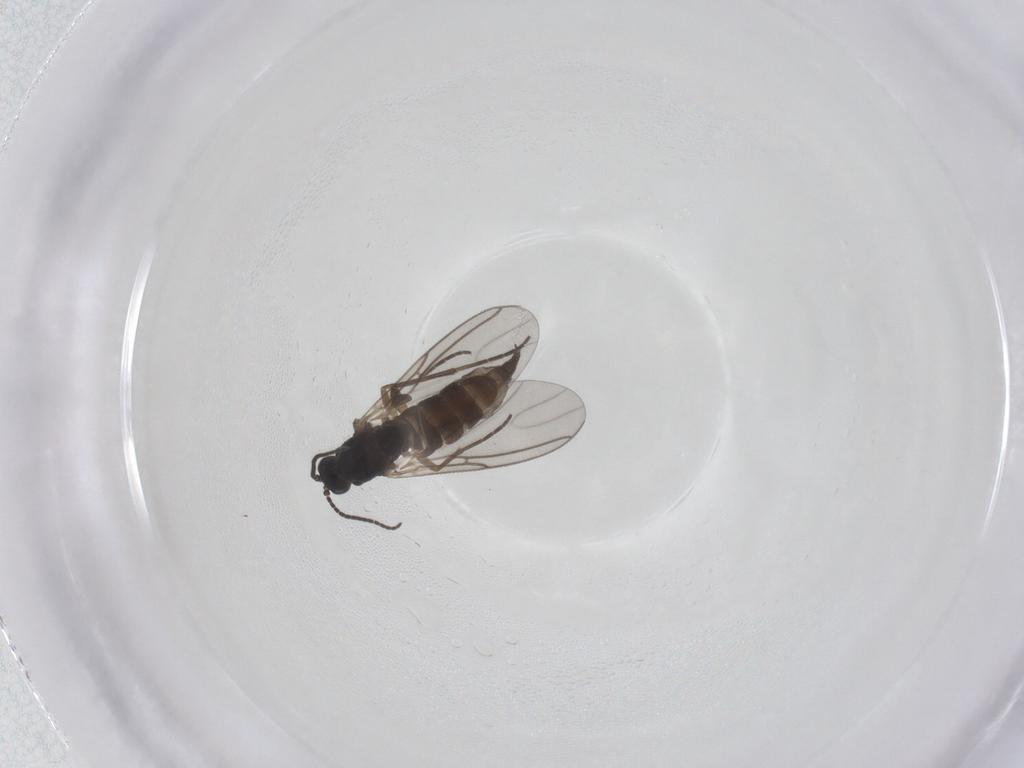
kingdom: Animalia
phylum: Arthropoda
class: Insecta
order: Diptera
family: Sciaridae
